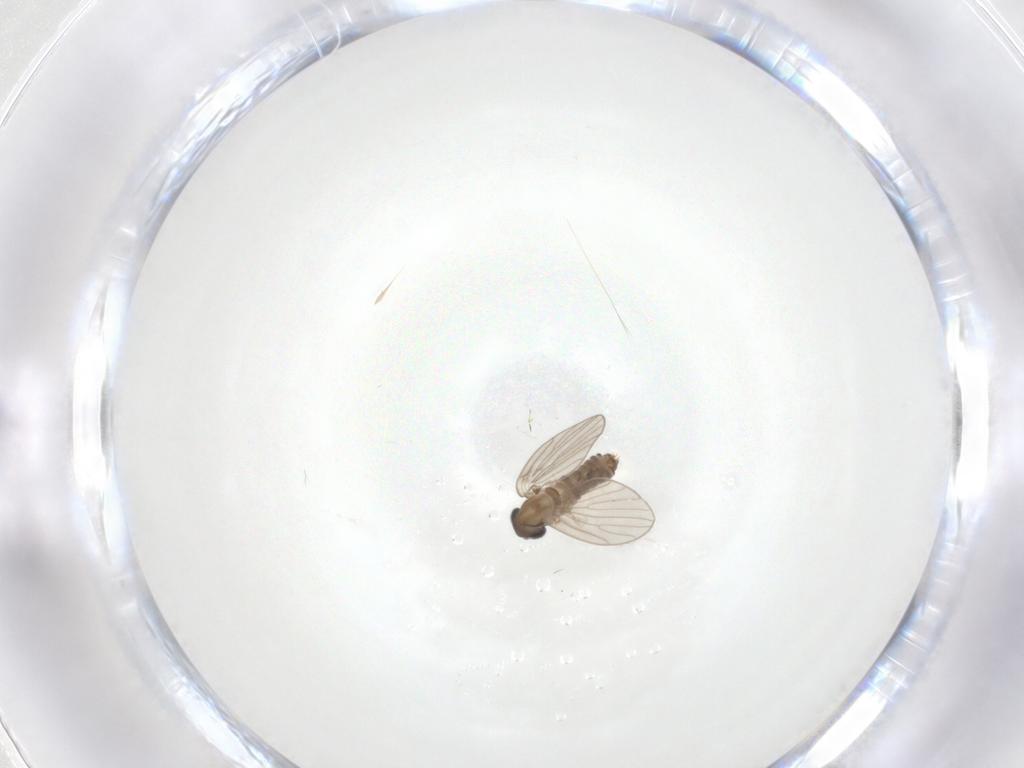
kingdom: Animalia
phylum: Arthropoda
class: Insecta
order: Diptera
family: Psychodidae
